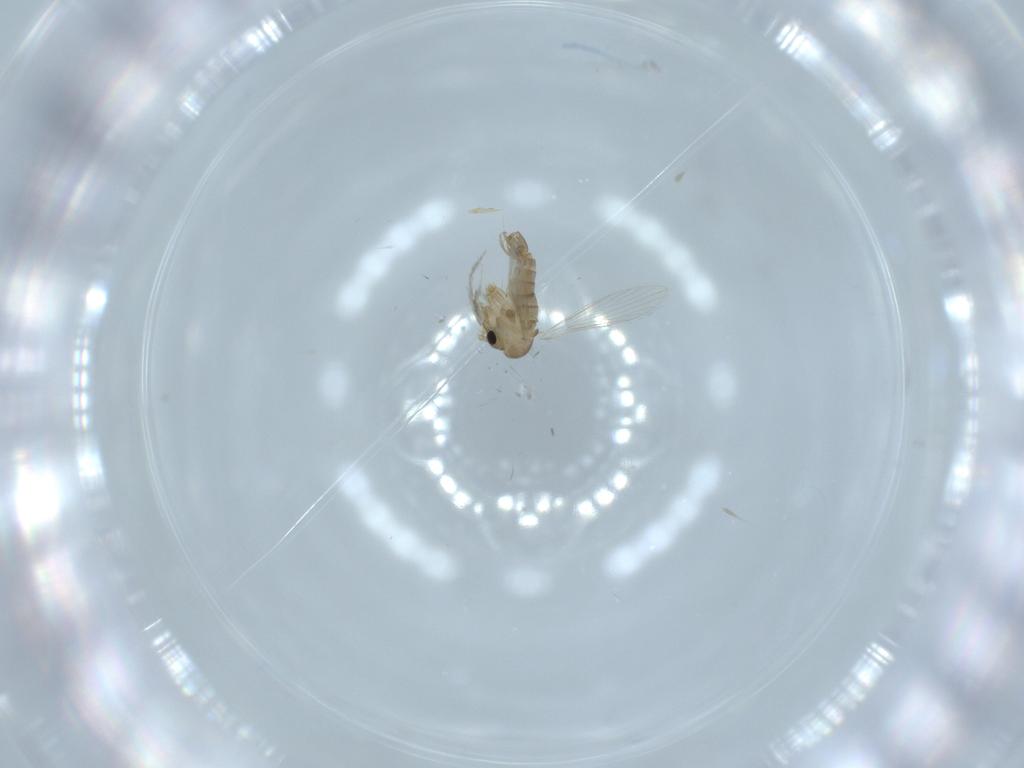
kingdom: Animalia
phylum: Arthropoda
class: Insecta
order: Diptera
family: Psychodidae
